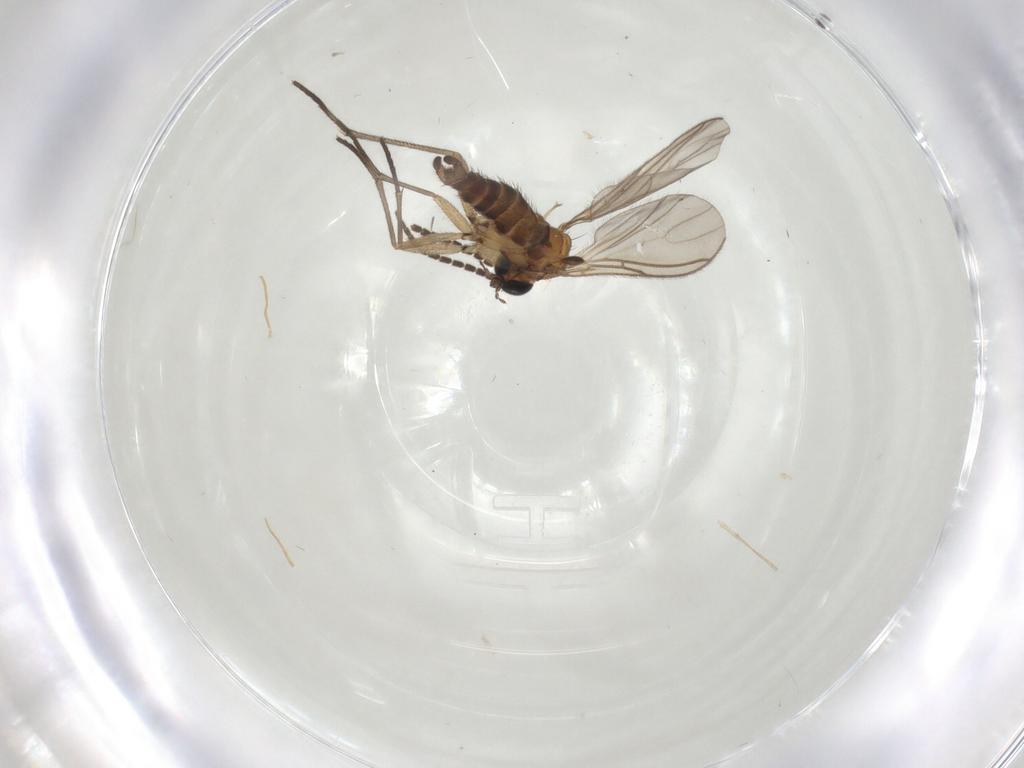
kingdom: Animalia
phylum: Arthropoda
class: Insecta
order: Diptera
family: Sciaridae
